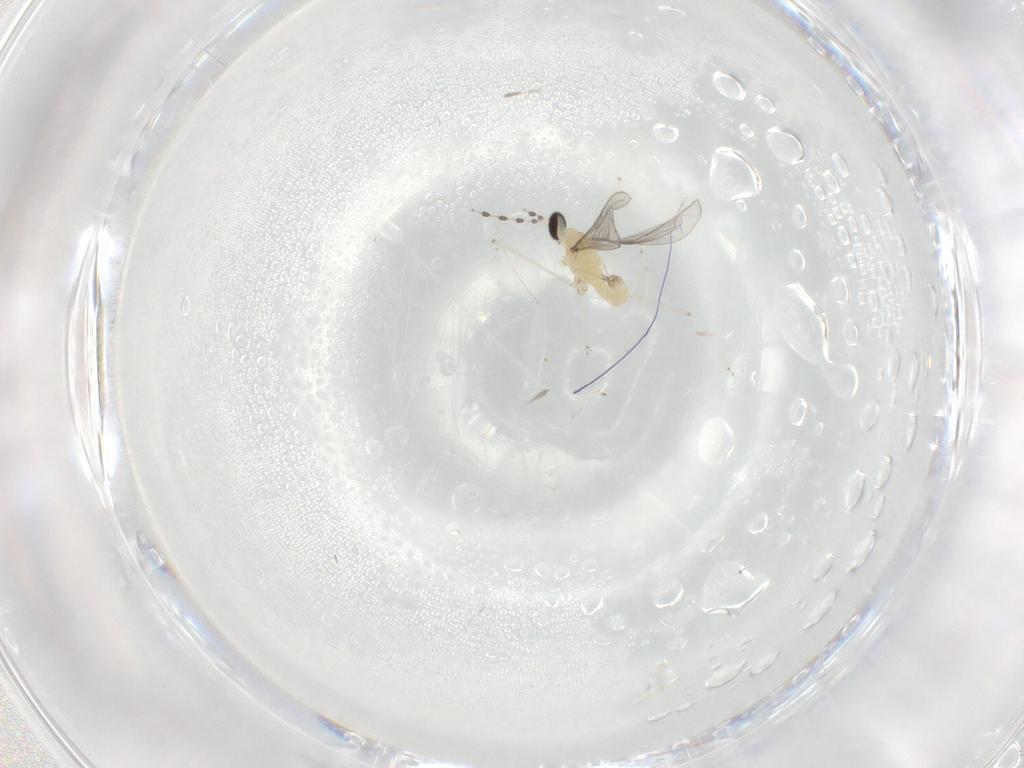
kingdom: Animalia
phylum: Arthropoda
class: Insecta
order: Diptera
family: Cecidomyiidae
